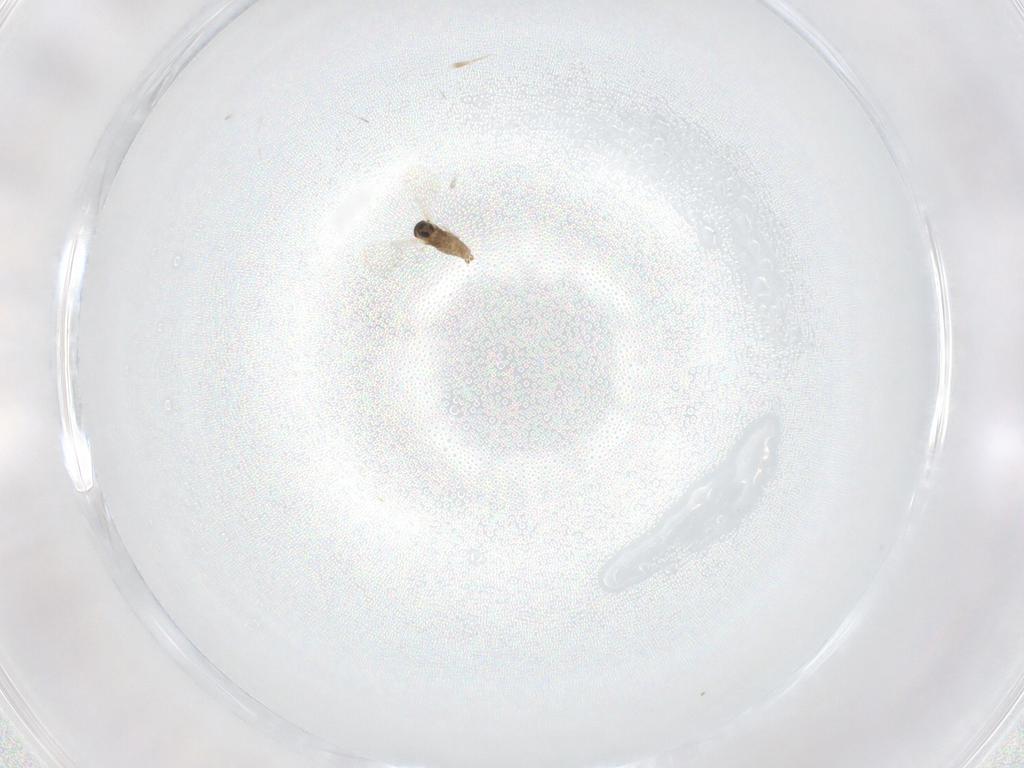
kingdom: Animalia
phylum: Arthropoda
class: Insecta
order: Diptera
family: Cecidomyiidae
